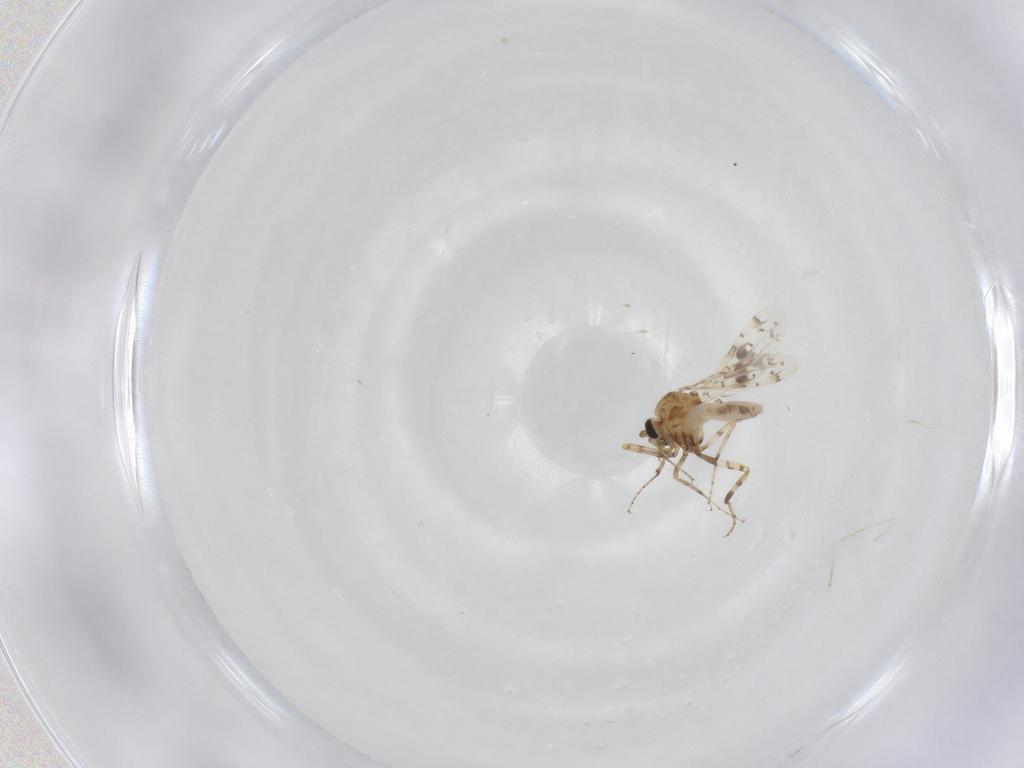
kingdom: Animalia
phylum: Arthropoda
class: Insecta
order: Diptera
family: Ceratopogonidae
